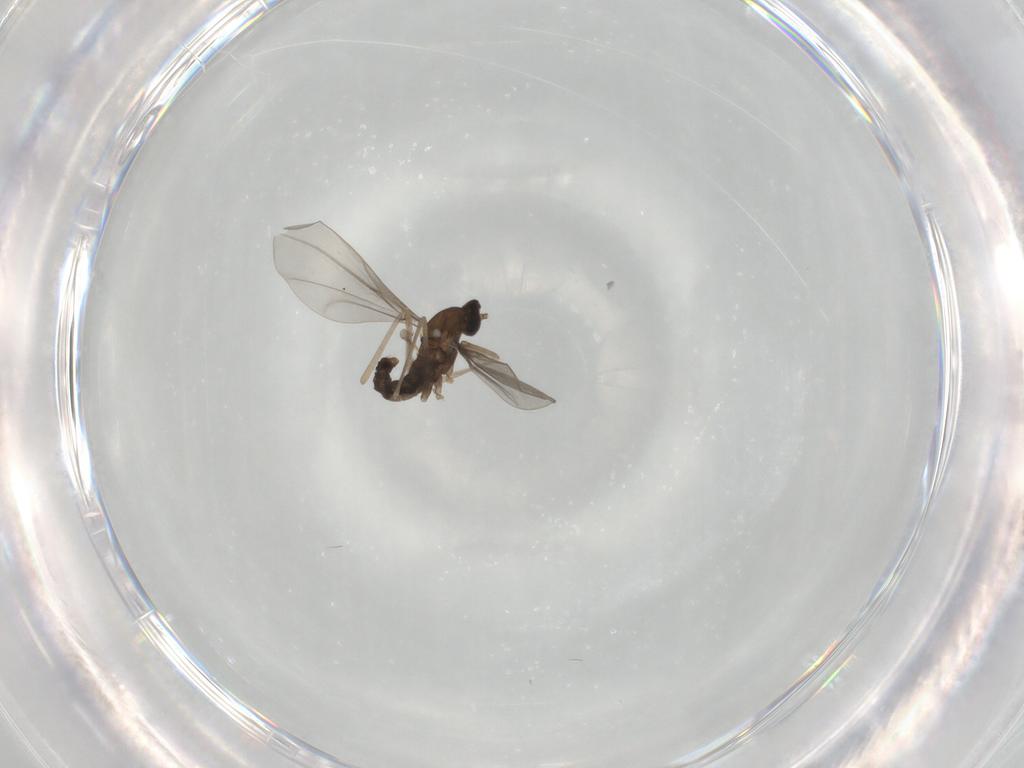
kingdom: Animalia
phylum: Arthropoda
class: Insecta
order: Diptera
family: Cecidomyiidae
